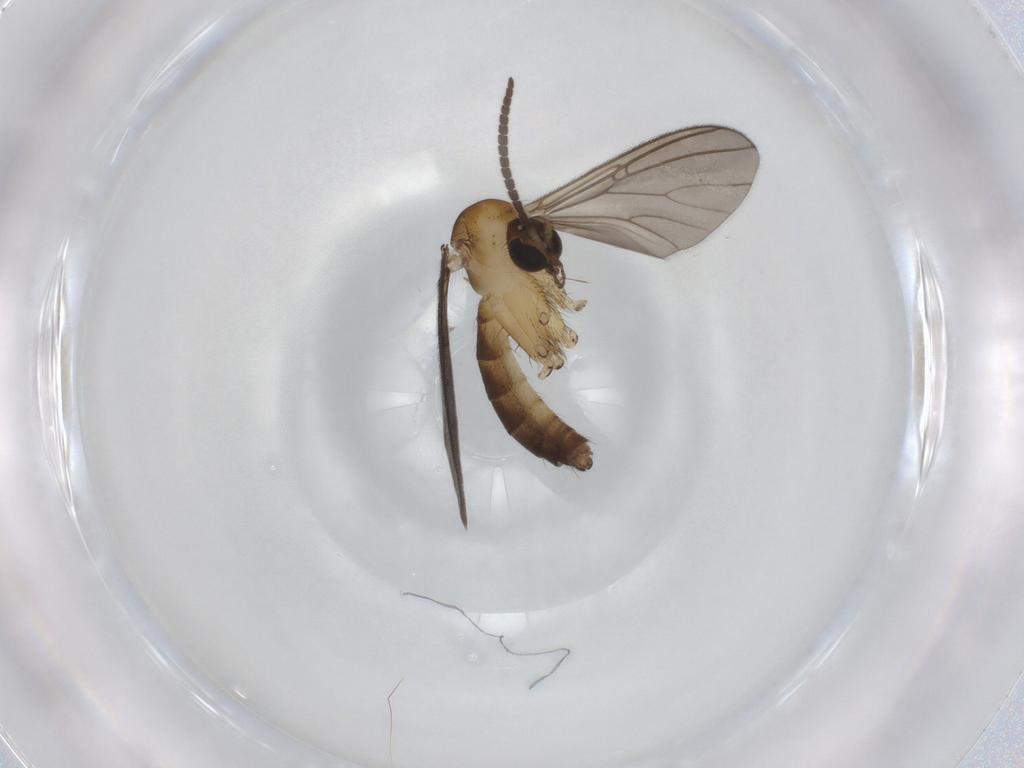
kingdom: Animalia
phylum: Arthropoda
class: Insecta
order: Diptera
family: Mycetophilidae
